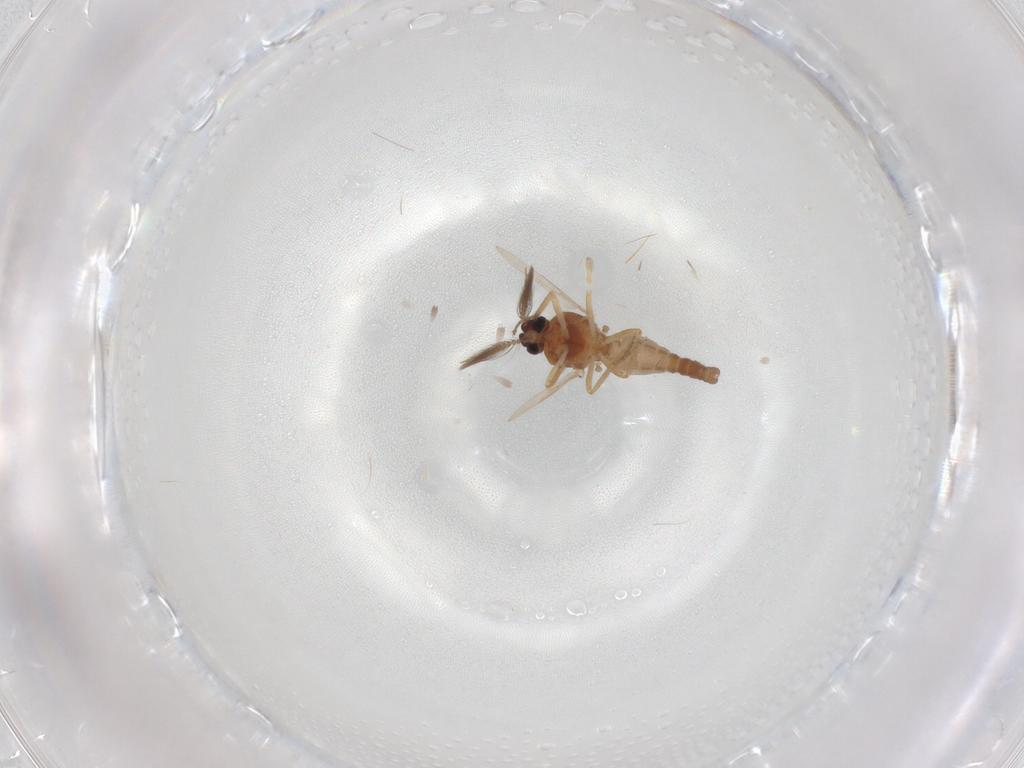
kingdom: Animalia
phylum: Arthropoda
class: Insecta
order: Diptera
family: Ceratopogonidae
